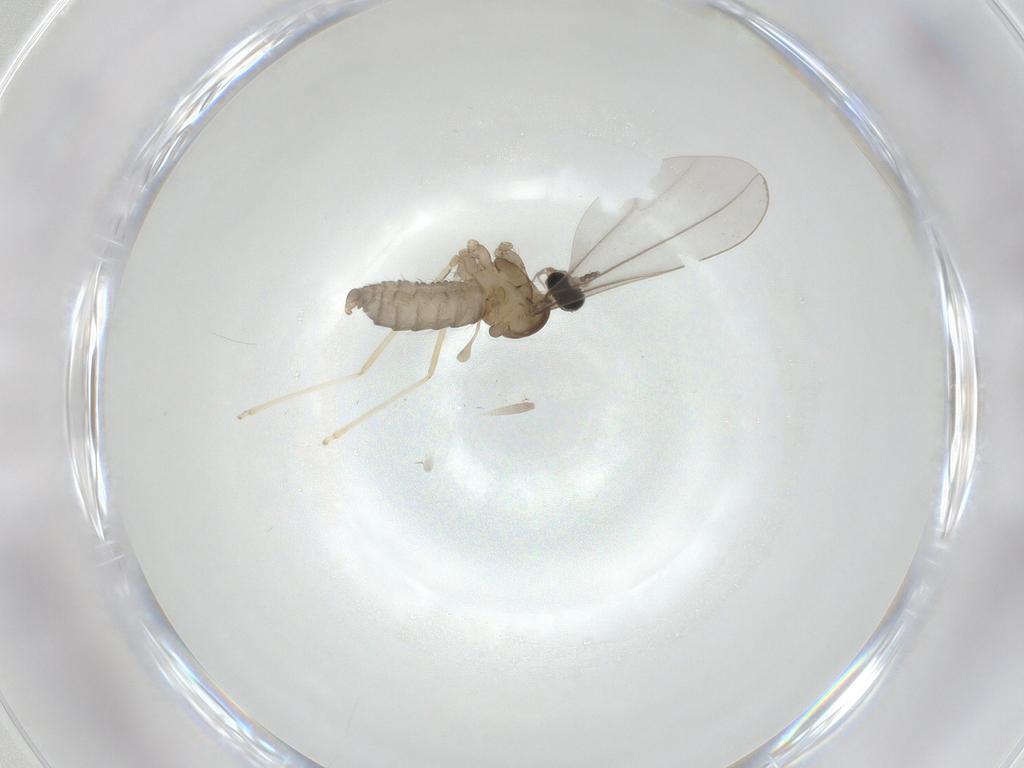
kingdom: Animalia
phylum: Arthropoda
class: Insecta
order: Diptera
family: Cecidomyiidae
